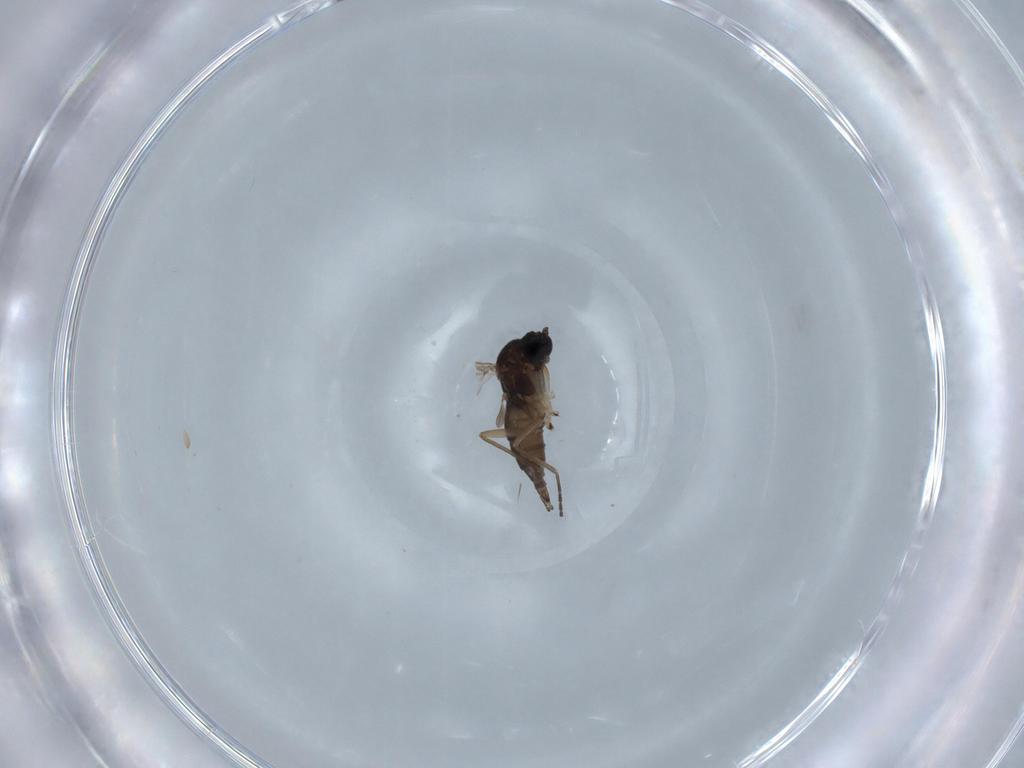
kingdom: Animalia
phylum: Arthropoda
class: Insecta
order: Diptera
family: Sciaridae
